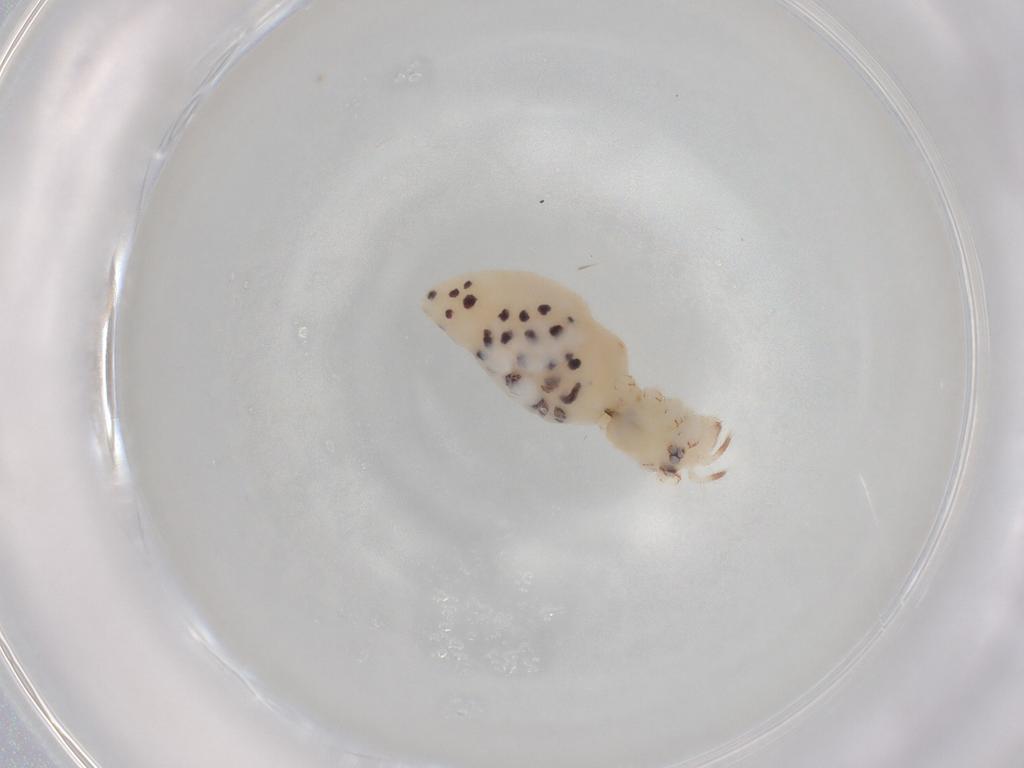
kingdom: Animalia
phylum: Arthropoda
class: Arachnida
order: Araneae
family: Pholcidae
